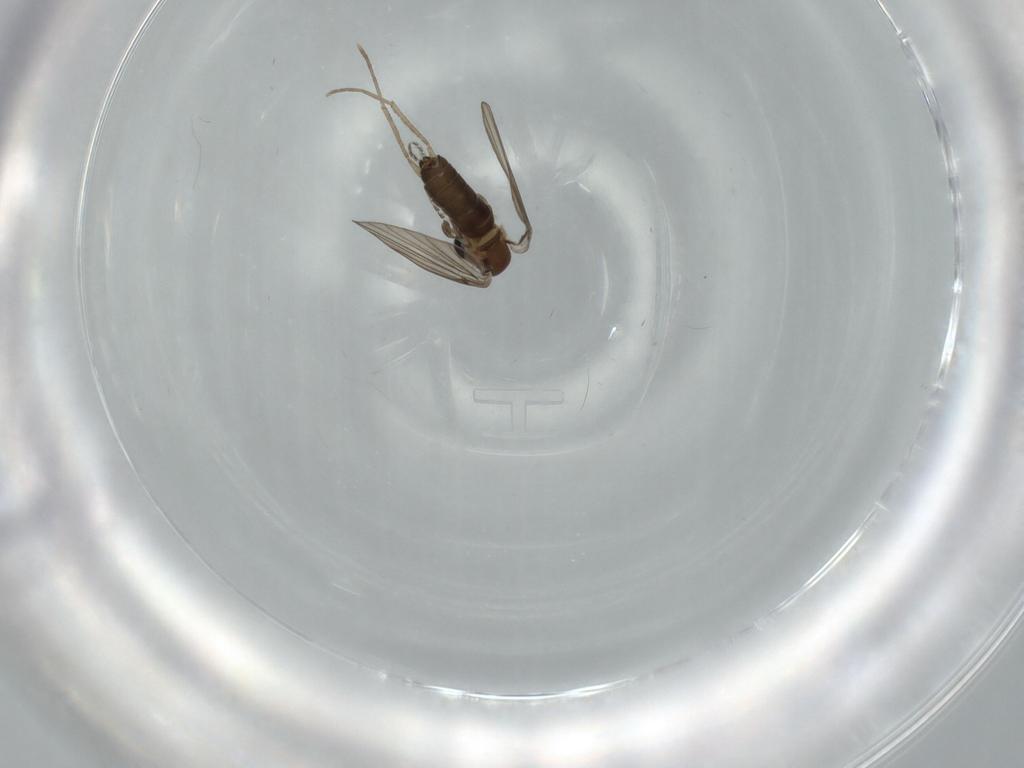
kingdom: Animalia
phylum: Arthropoda
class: Insecta
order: Diptera
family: Psychodidae
